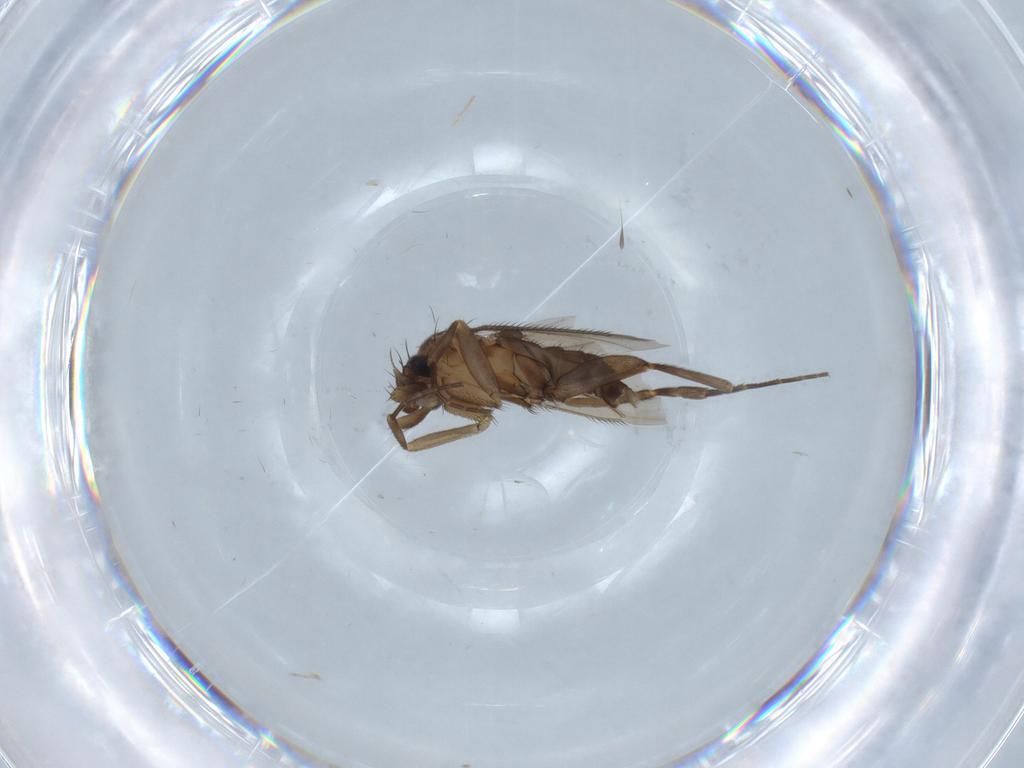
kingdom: Animalia
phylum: Arthropoda
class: Insecta
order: Diptera
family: Phoridae
